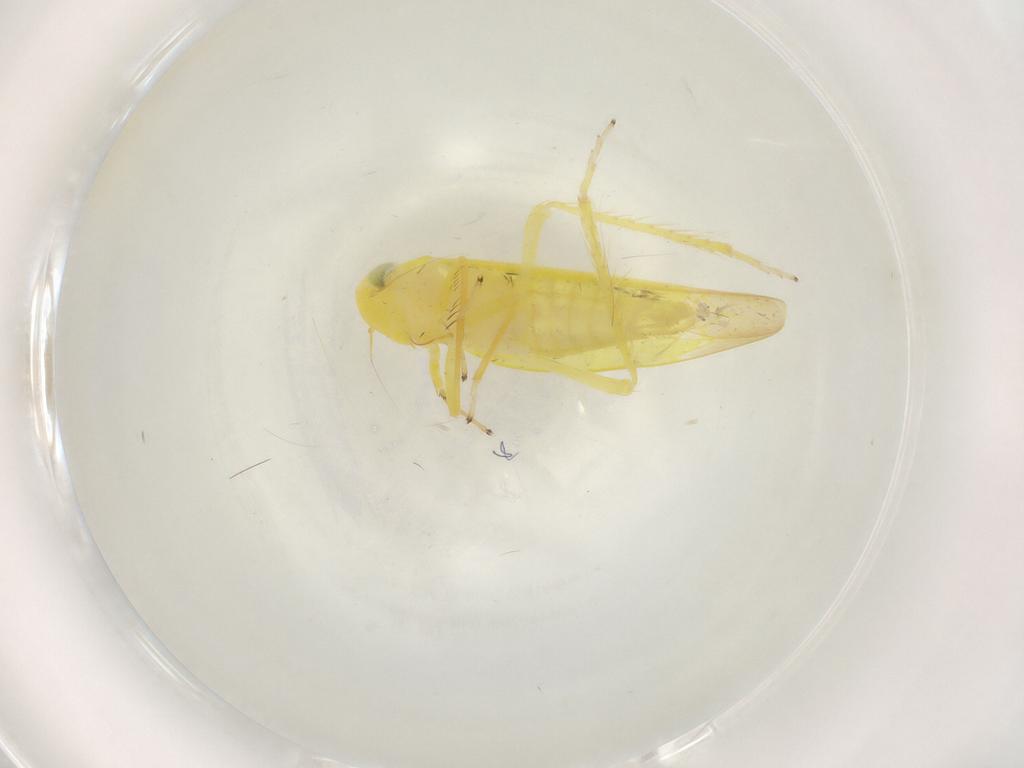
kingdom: Animalia
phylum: Arthropoda
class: Insecta
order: Hemiptera
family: Cicadellidae
